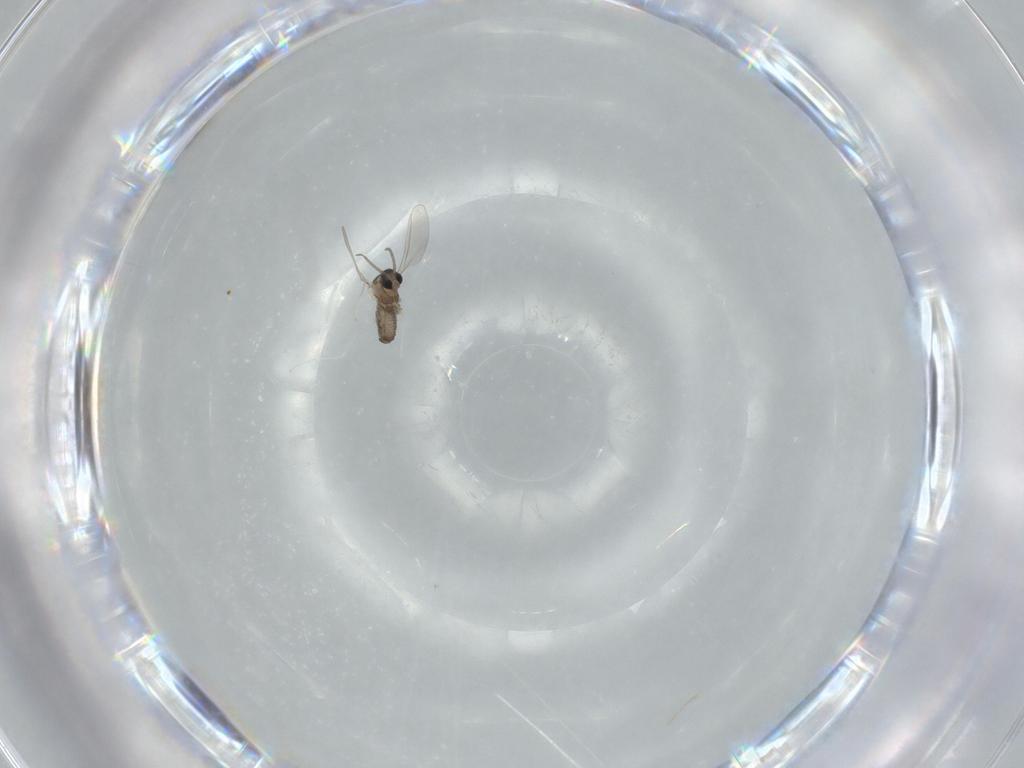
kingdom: Animalia
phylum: Arthropoda
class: Insecta
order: Diptera
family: Cecidomyiidae
